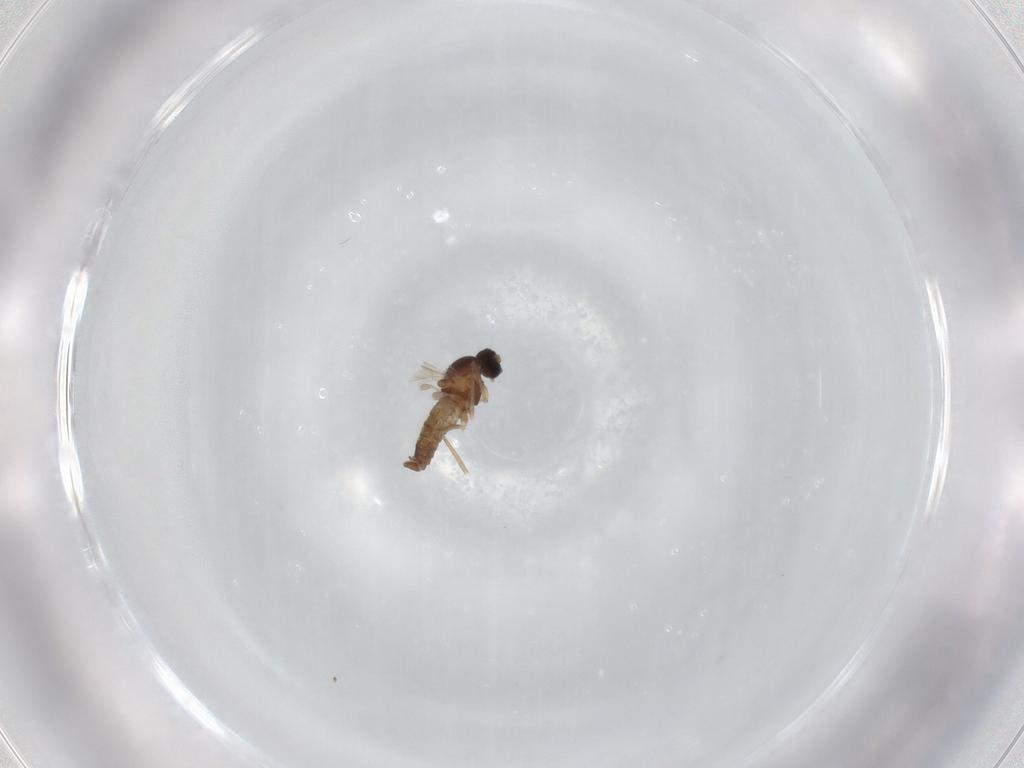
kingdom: Animalia
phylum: Arthropoda
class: Insecta
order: Diptera
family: Cecidomyiidae
